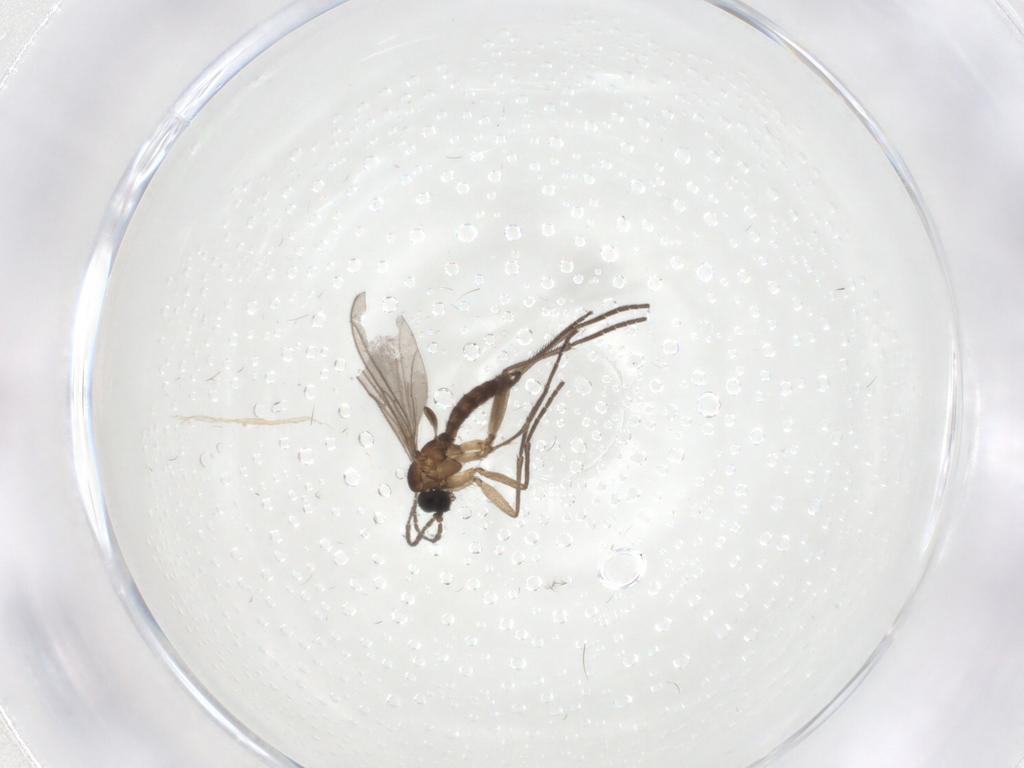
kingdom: Animalia
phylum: Arthropoda
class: Insecta
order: Diptera
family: Sciaridae
